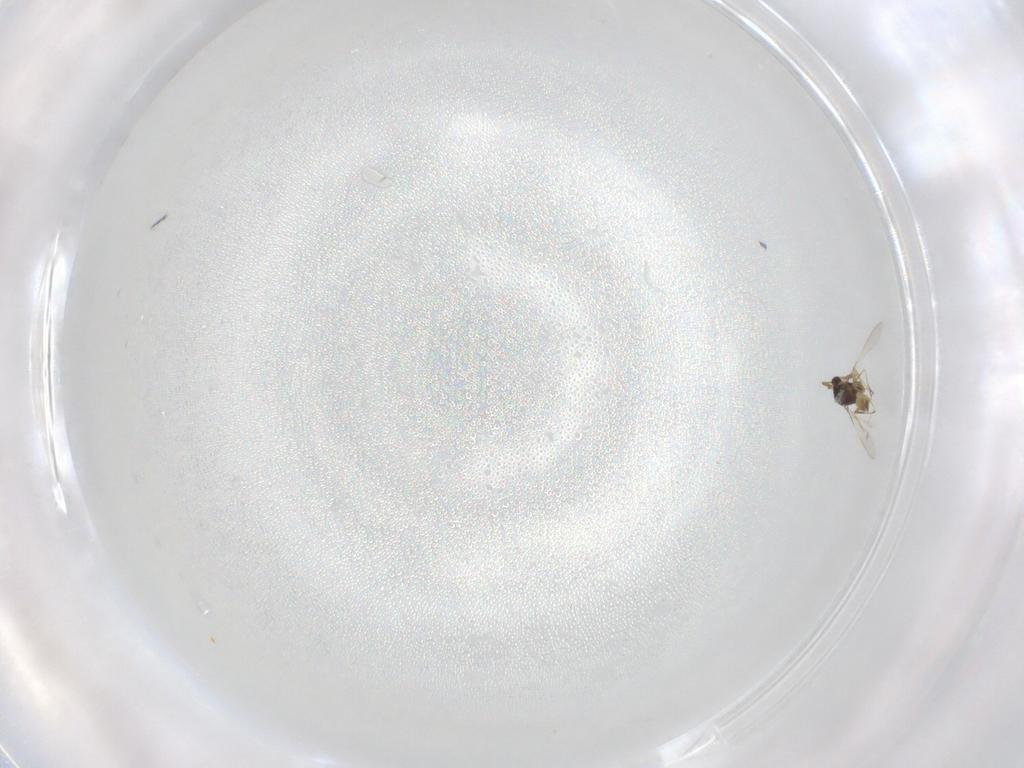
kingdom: Animalia
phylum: Arthropoda
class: Insecta
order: Hymenoptera
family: Mymaridae
